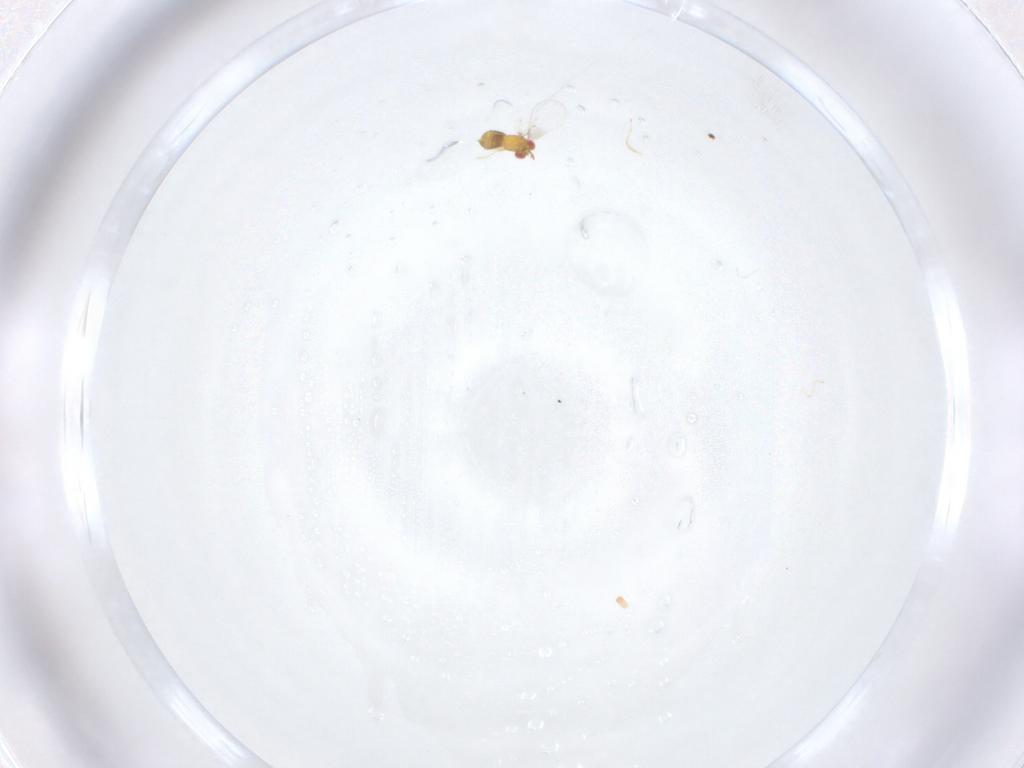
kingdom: Animalia
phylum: Arthropoda
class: Insecta
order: Hymenoptera
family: Trichogrammatidae
